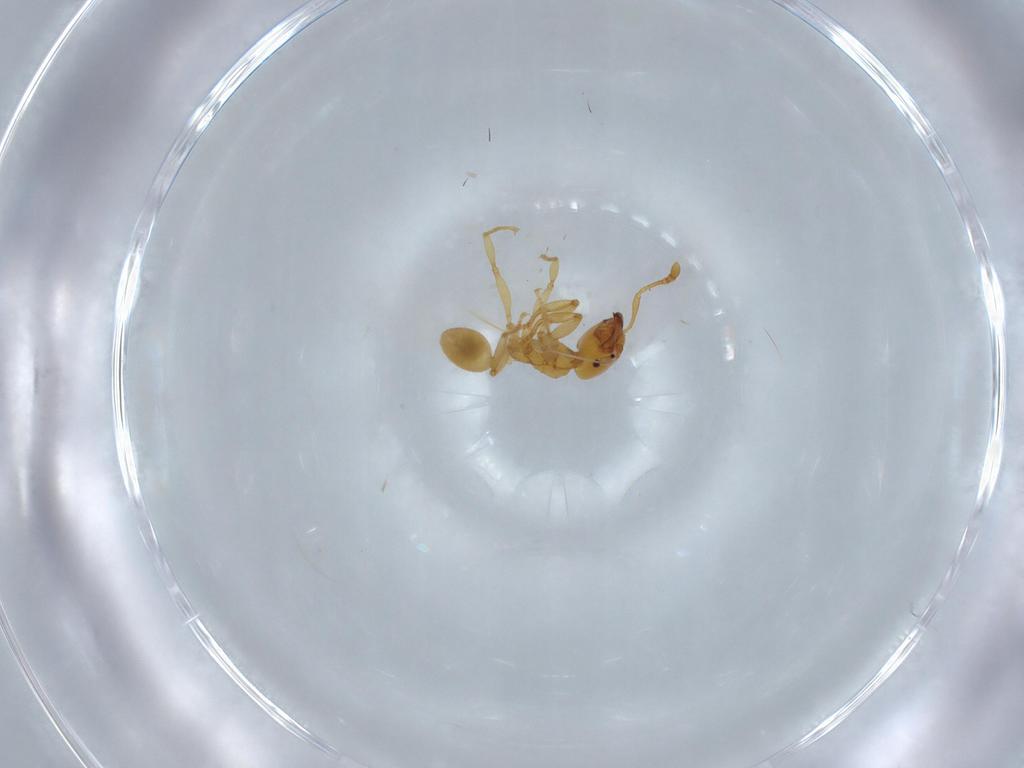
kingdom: Animalia
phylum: Arthropoda
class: Insecta
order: Hymenoptera
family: Formicidae
